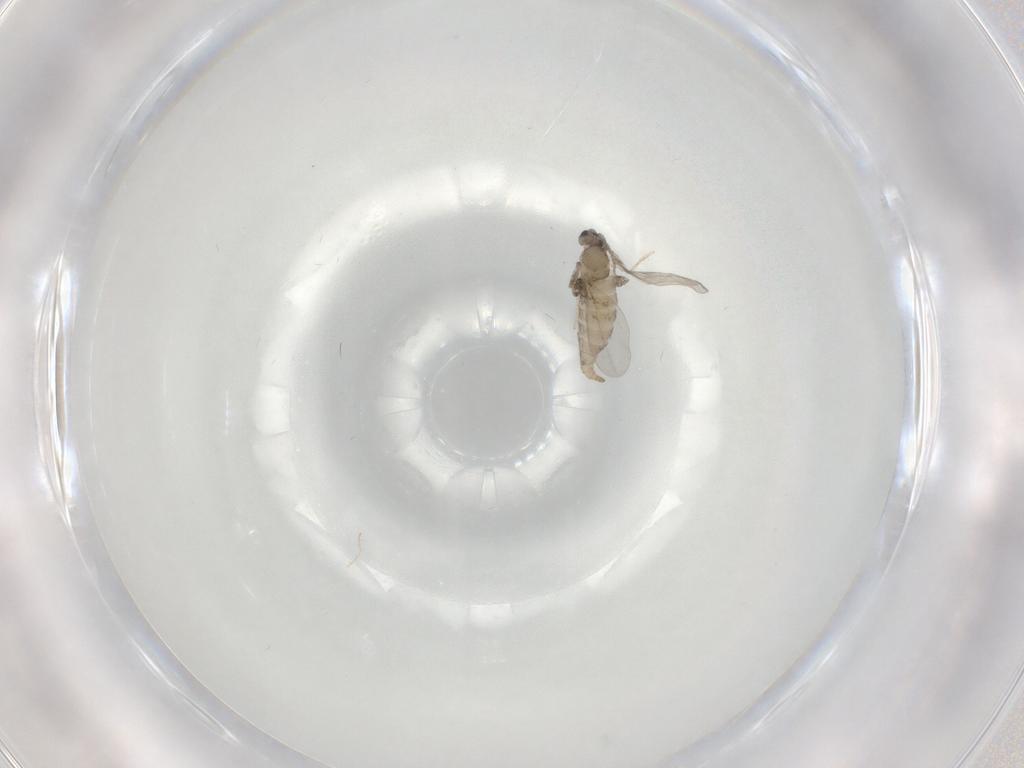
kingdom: Animalia
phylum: Arthropoda
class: Insecta
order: Diptera
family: Cecidomyiidae
